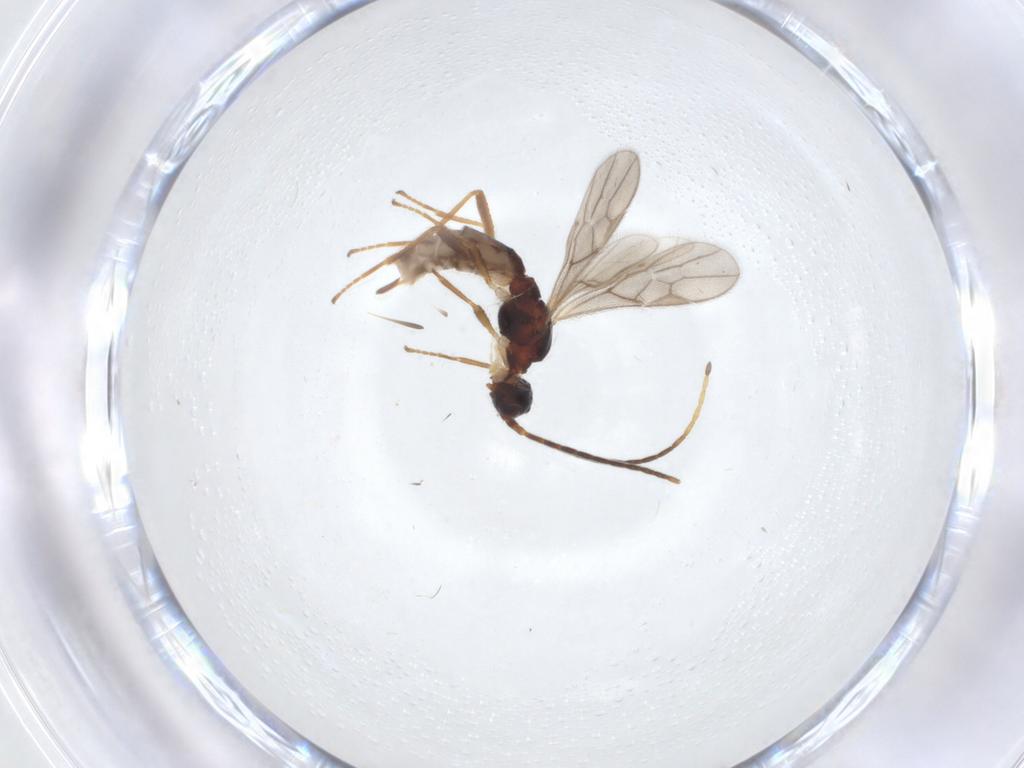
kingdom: Animalia
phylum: Arthropoda
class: Insecta
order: Hymenoptera
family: Braconidae
